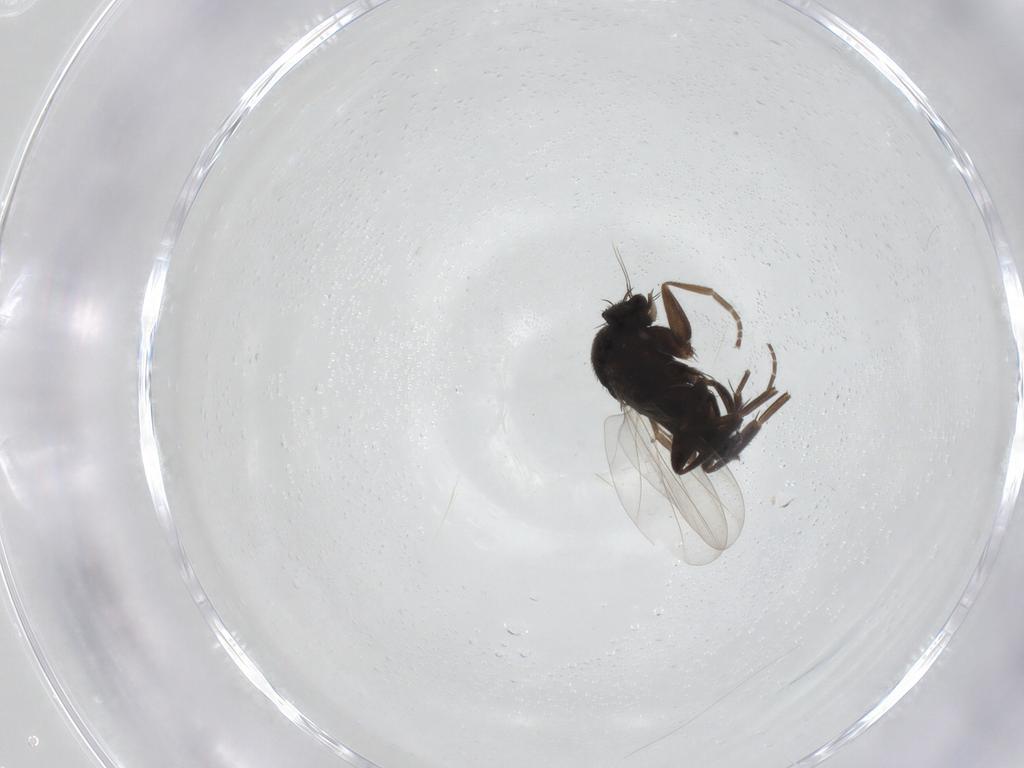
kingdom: Animalia
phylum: Arthropoda
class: Insecta
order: Diptera
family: Phoridae
